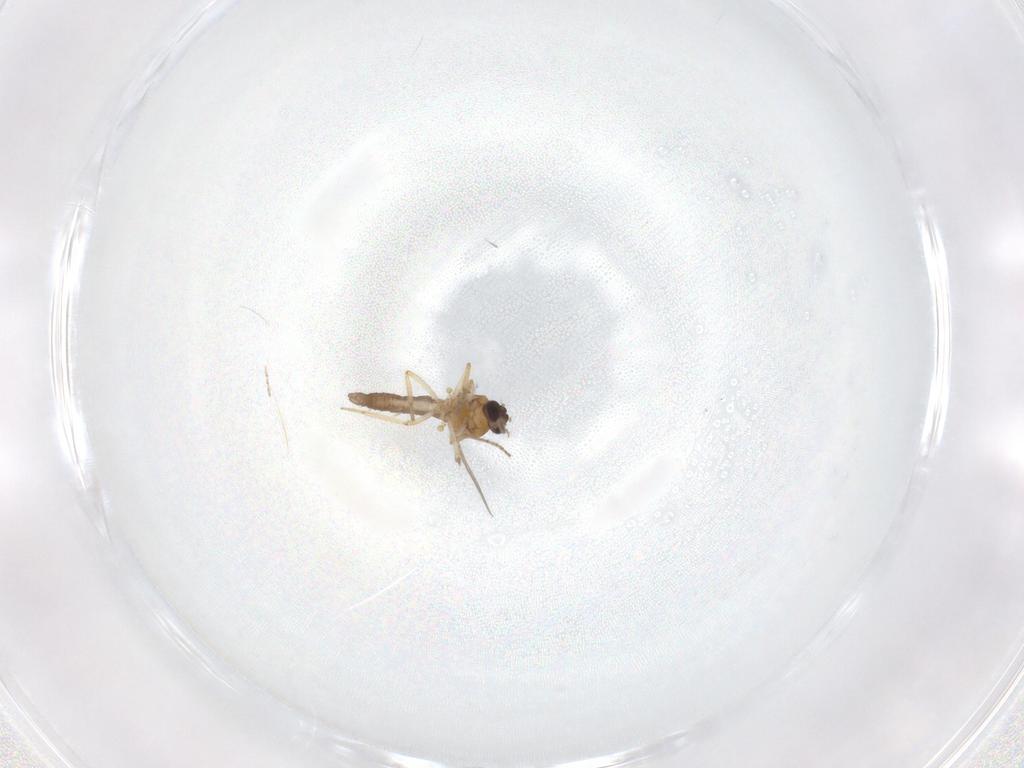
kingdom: Animalia
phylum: Arthropoda
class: Insecta
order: Diptera
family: Ceratopogonidae
